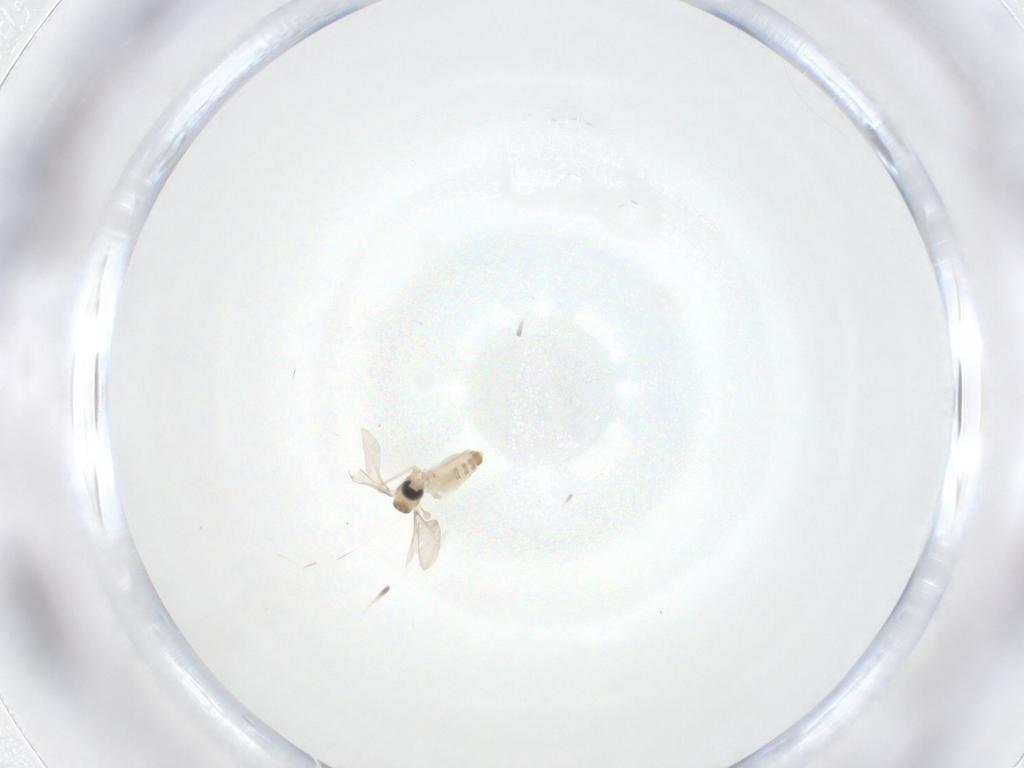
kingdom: Animalia
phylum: Arthropoda
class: Insecta
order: Diptera
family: Cecidomyiidae
